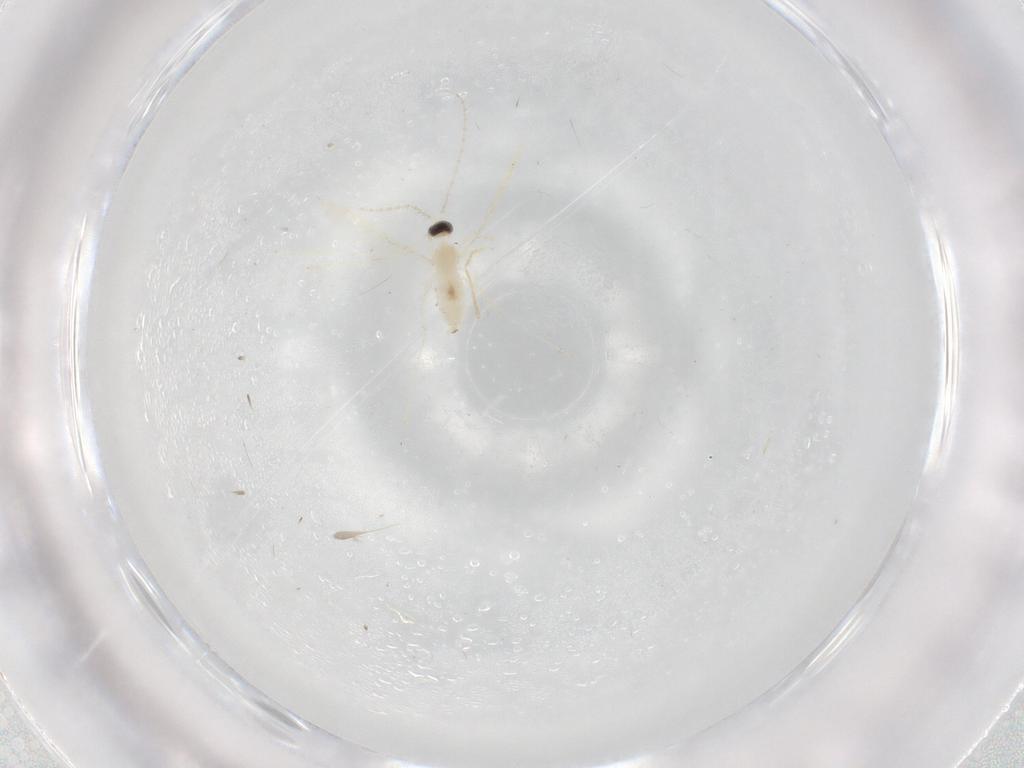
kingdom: Animalia
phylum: Arthropoda
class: Insecta
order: Diptera
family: Cecidomyiidae
